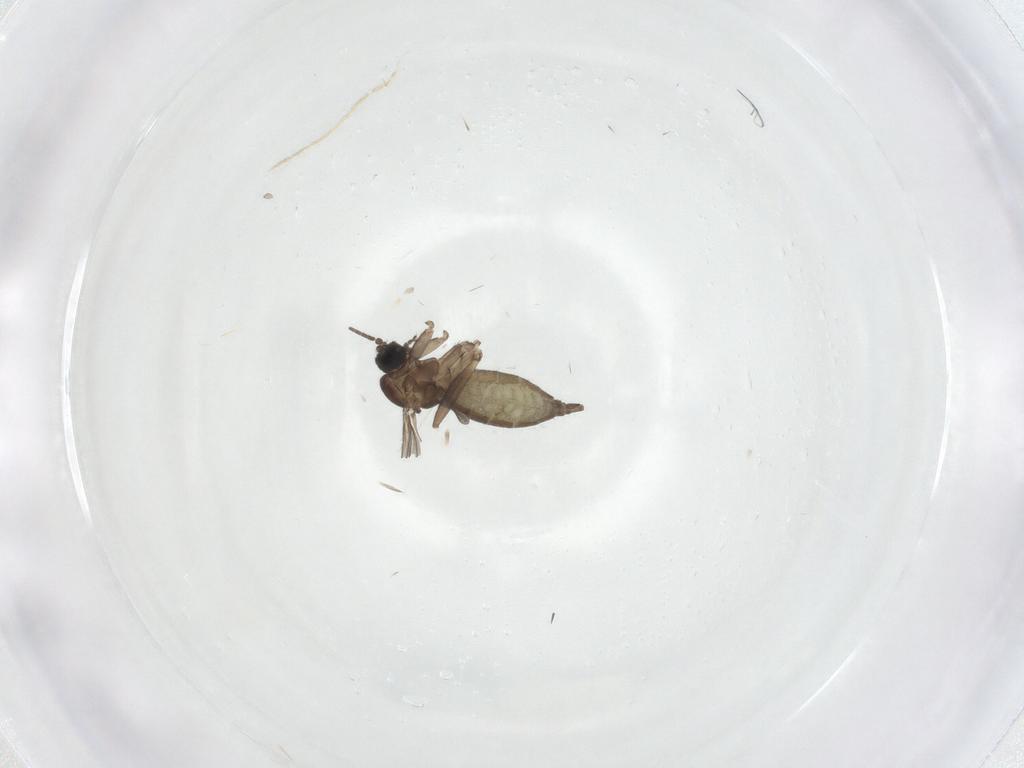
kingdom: Animalia
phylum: Arthropoda
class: Insecta
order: Diptera
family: Sciaridae
